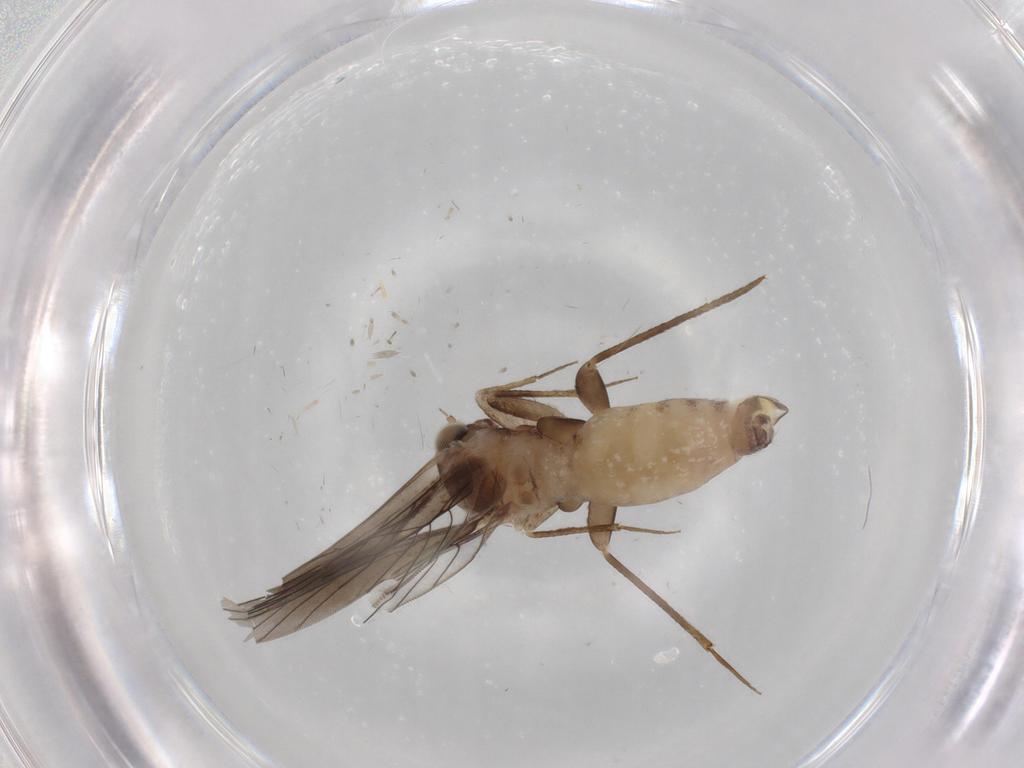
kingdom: Animalia
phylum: Arthropoda
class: Insecta
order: Psocodea
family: Lepidopsocidae
